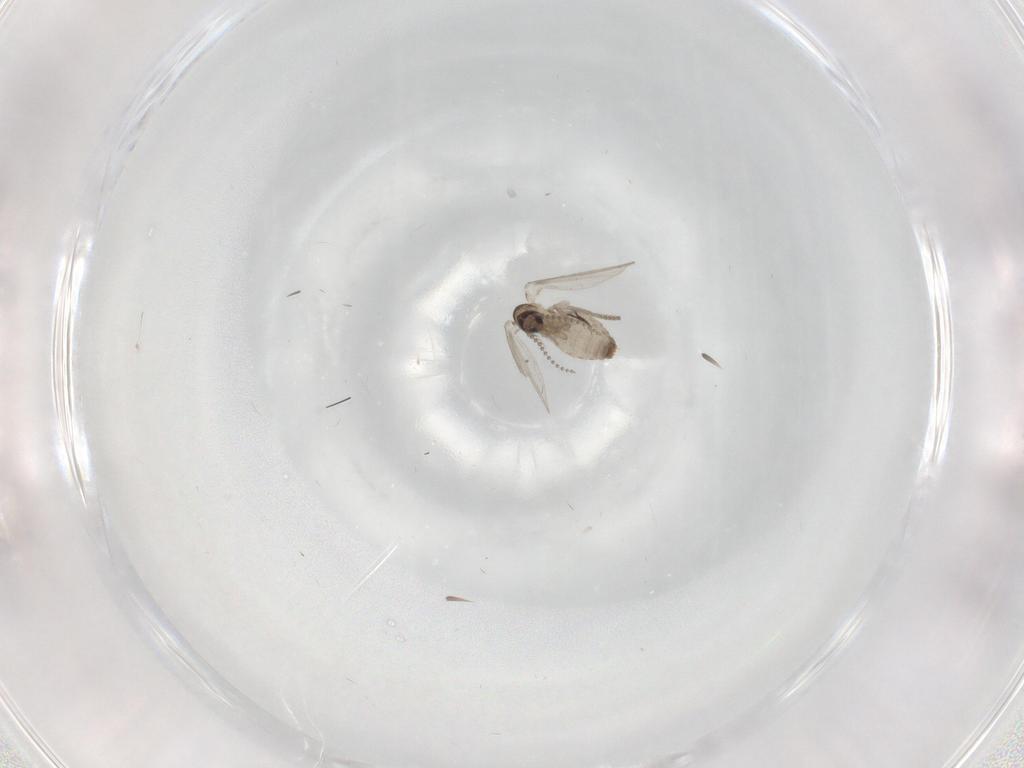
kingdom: Animalia
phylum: Arthropoda
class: Insecta
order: Diptera
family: Psychodidae
